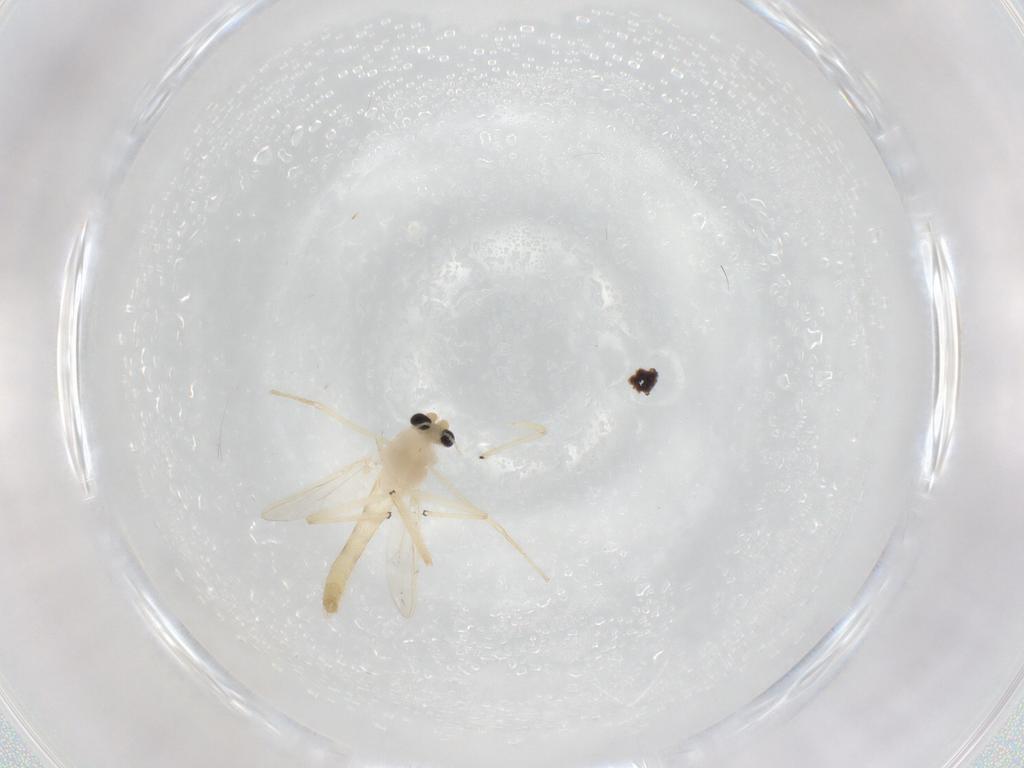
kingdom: Animalia
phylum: Arthropoda
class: Insecta
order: Diptera
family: Chironomidae
